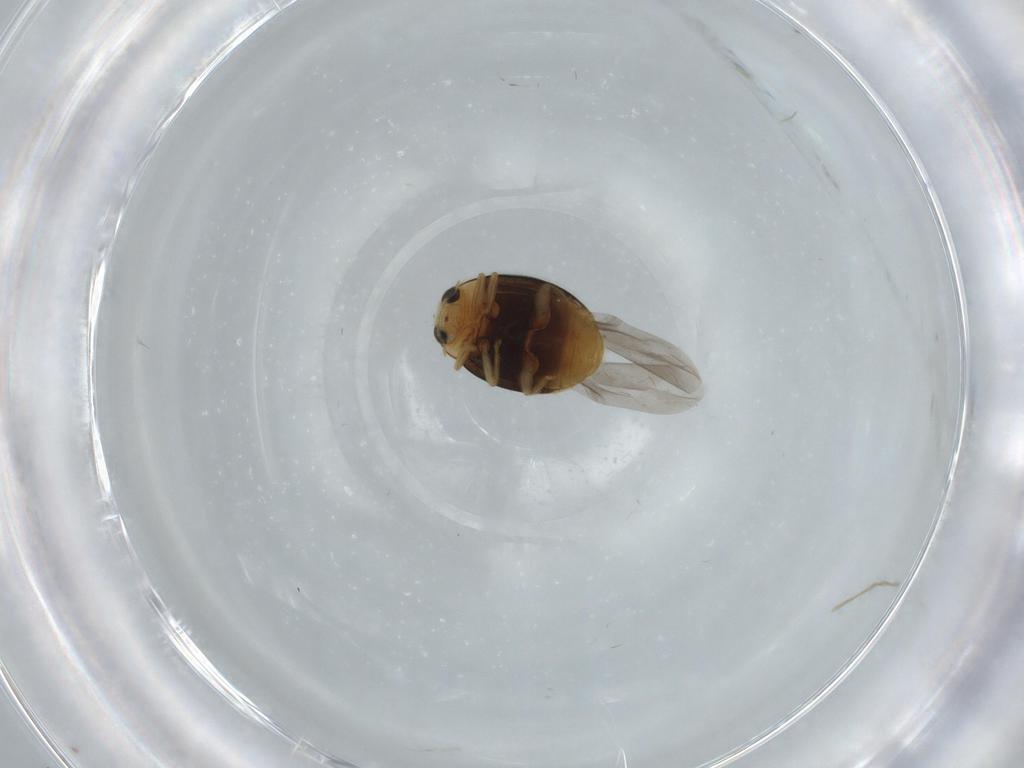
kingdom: Animalia
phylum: Arthropoda
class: Insecta
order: Coleoptera
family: Coccinellidae
